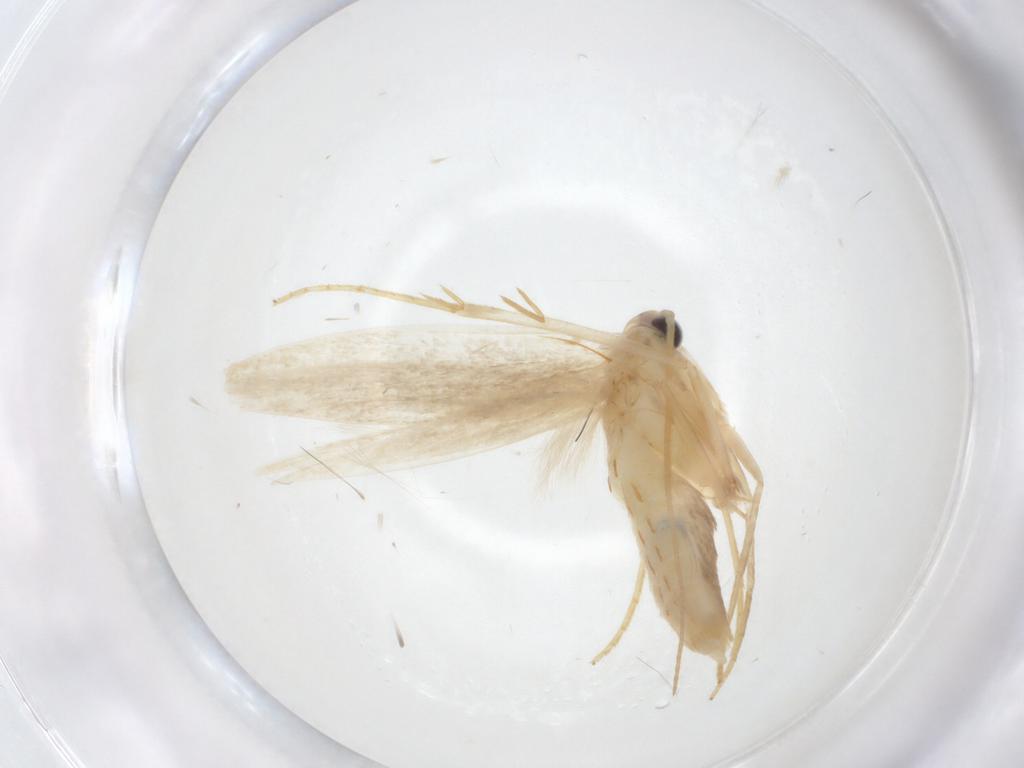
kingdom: Animalia
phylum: Arthropoda
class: Insecta
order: Lepidoptera
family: Coleophoridae
